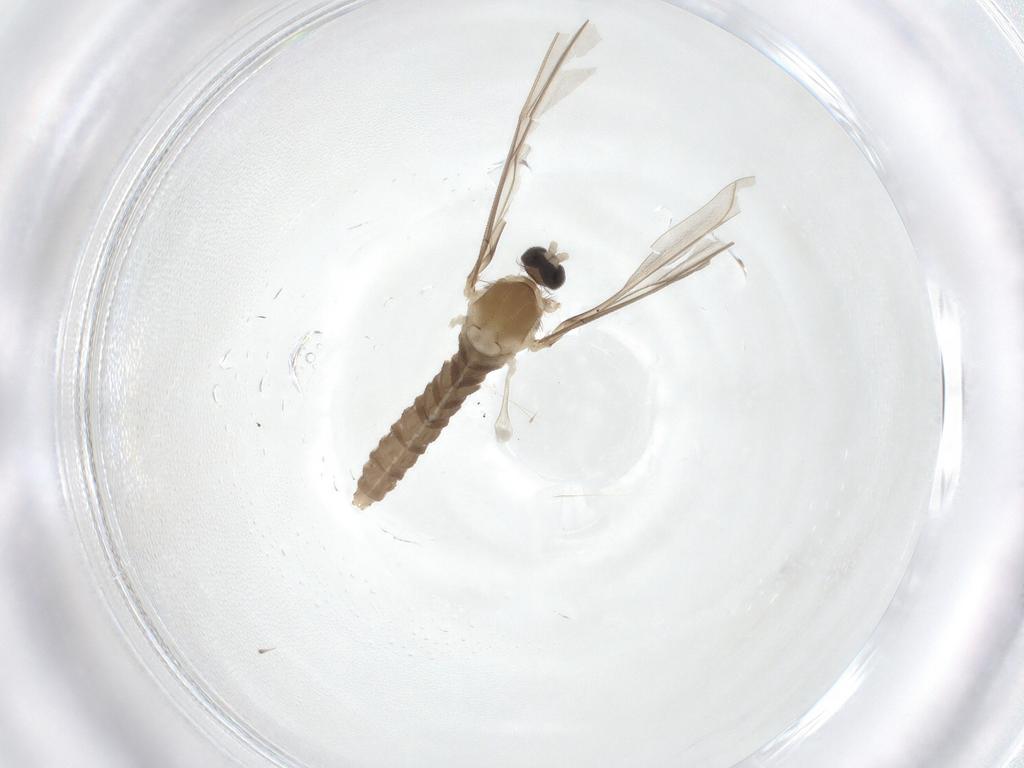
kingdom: Animalia
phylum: Arthropoda
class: Insecta
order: Diptera
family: Cecidomyiidae
